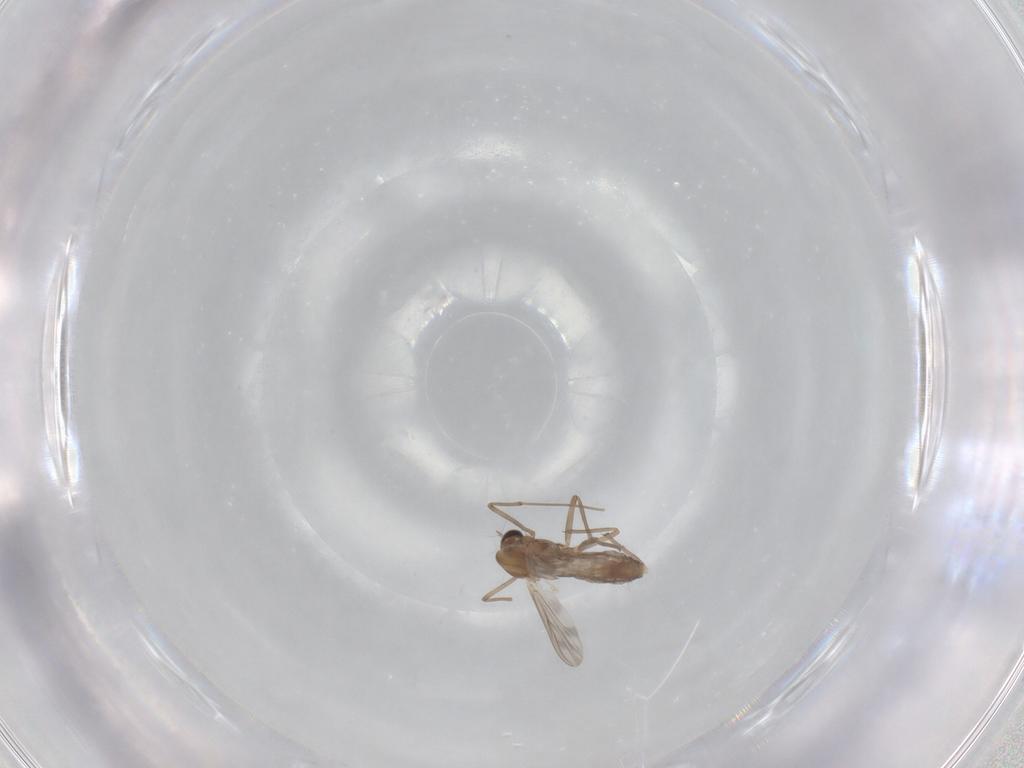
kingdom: Animalia
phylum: Arthropoda
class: Insecta
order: Diptera
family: Chironomidae
